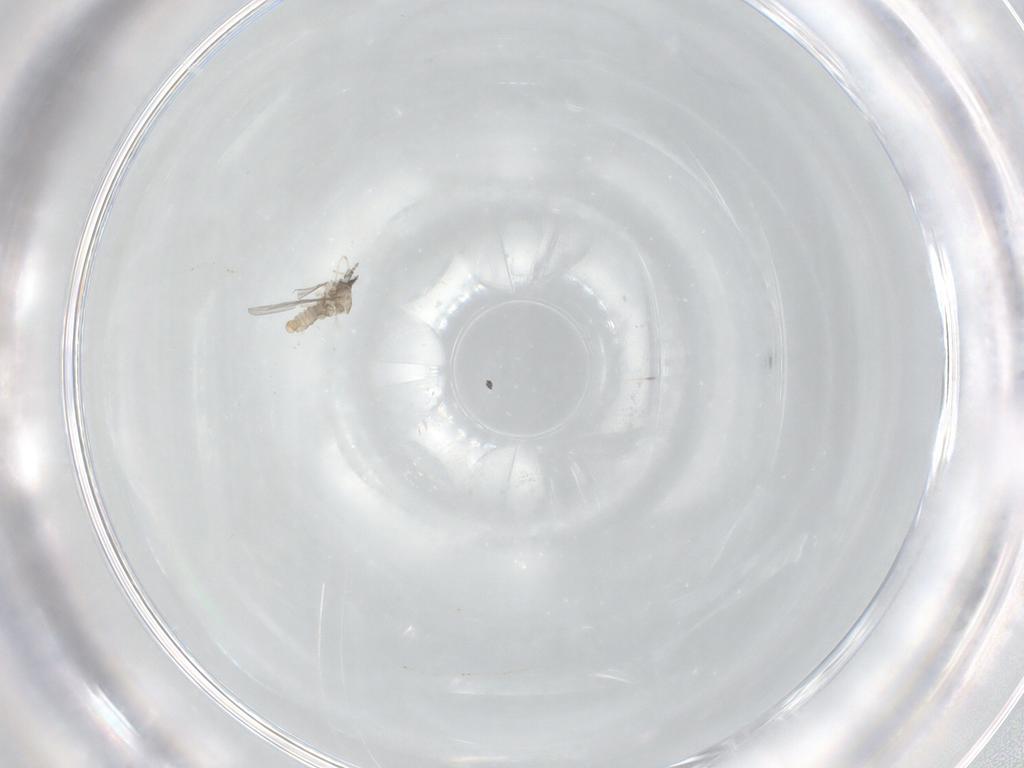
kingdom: Animalia
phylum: Arthropoda
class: Insecta
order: Diptera
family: Cecidomyiidae
